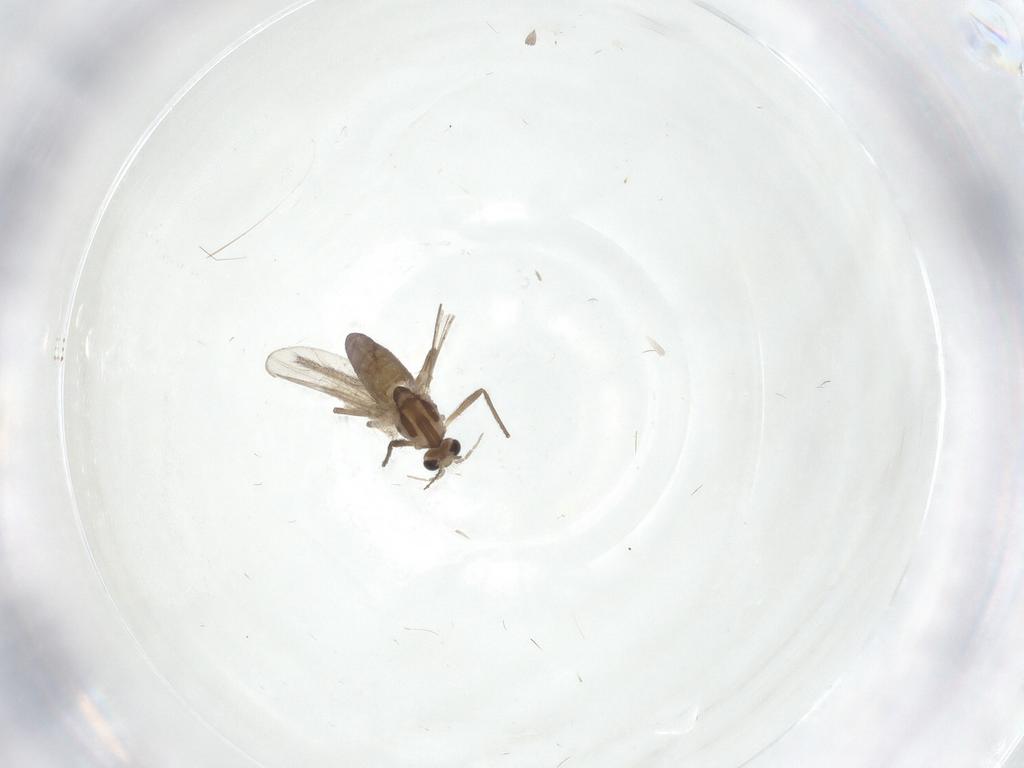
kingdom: Animalia
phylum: Arthropoda
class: Insecta
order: Diptera
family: Chironomidae
